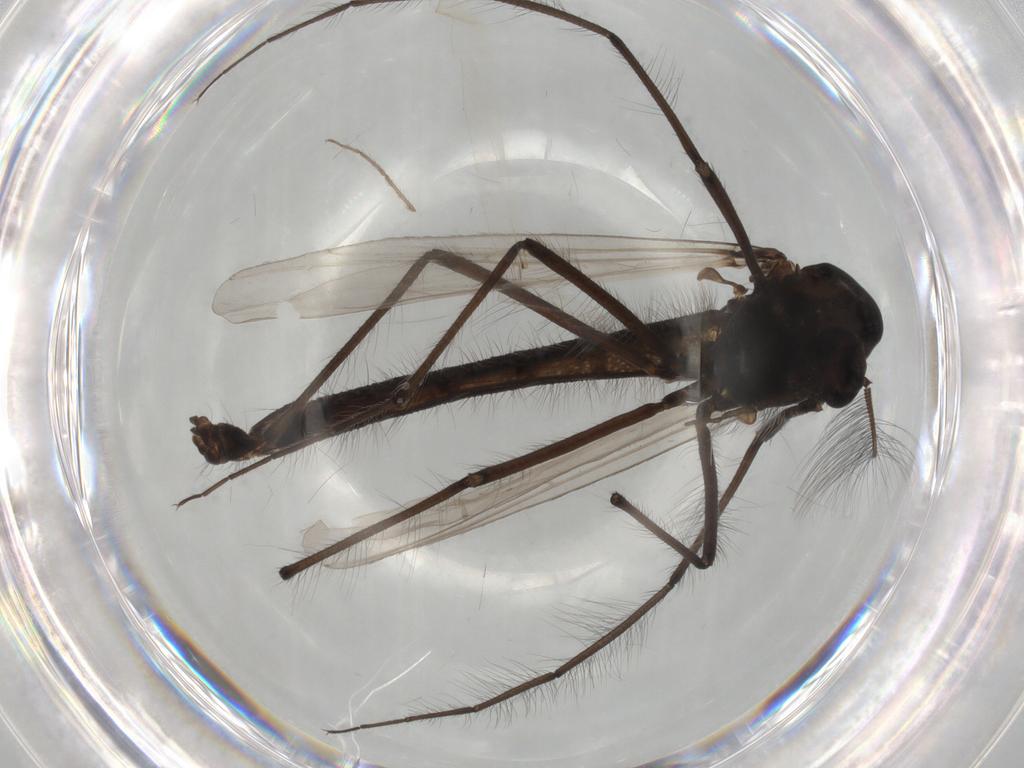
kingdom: Animalia
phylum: Arthropoda
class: Insecta
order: Diptera
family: Chironomidae
